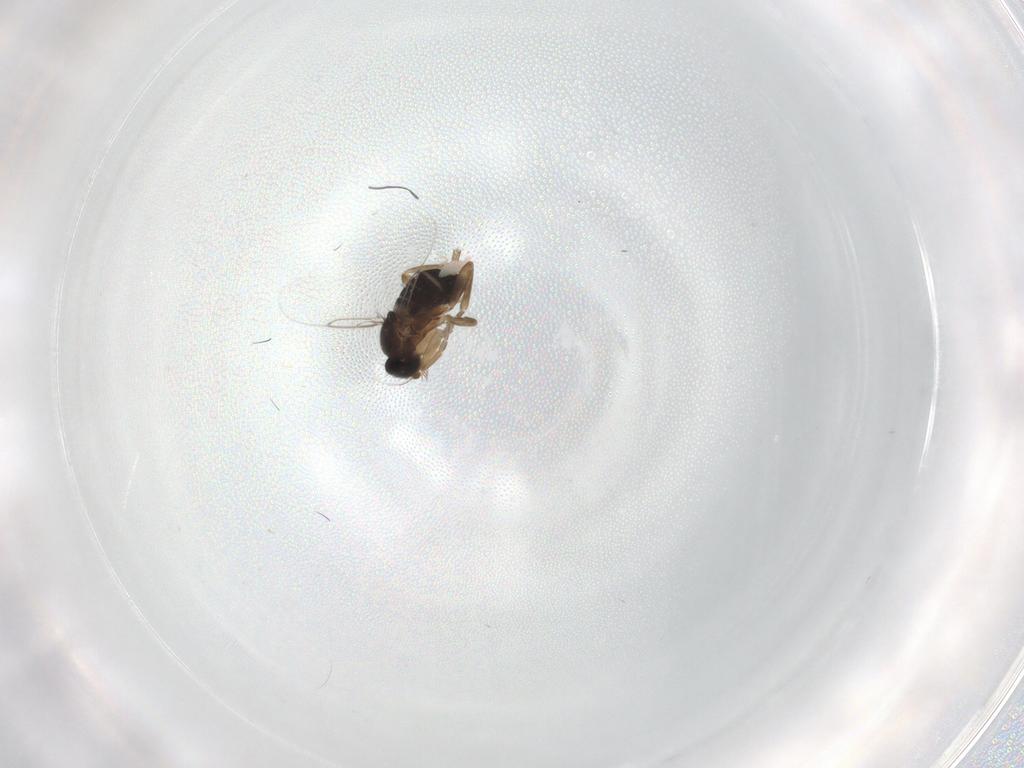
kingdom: Animalia
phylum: Arthropoda
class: Insecta
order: Diptera
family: Phoridae
